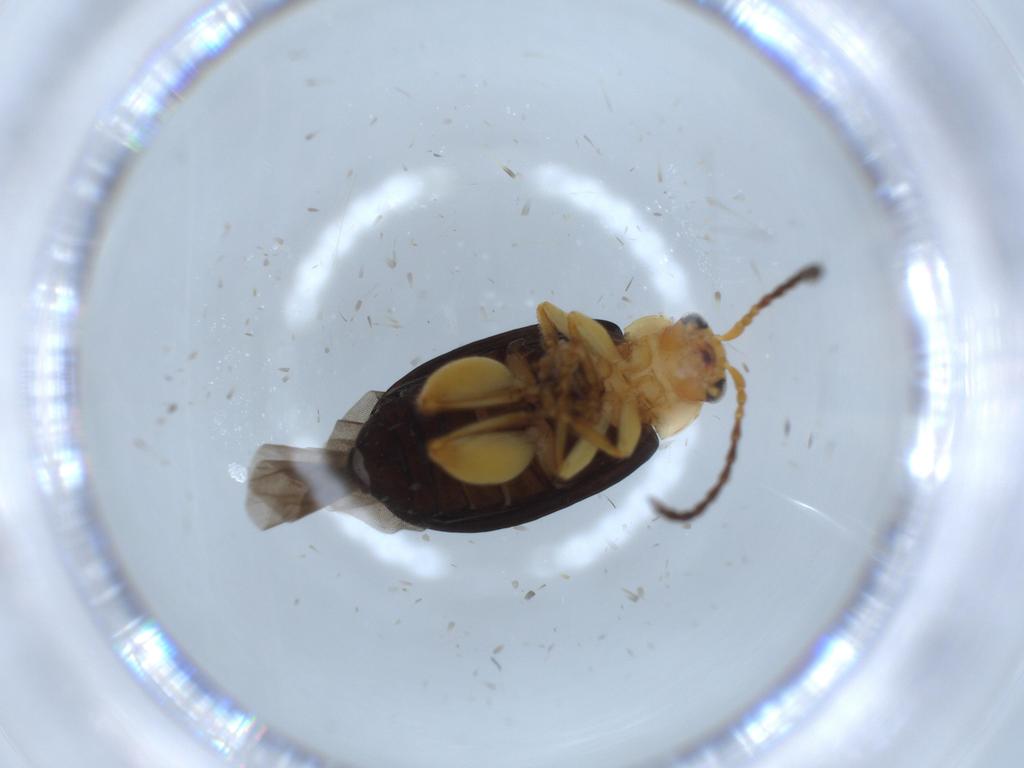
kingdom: Animalia
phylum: Arthropoda
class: Insecta
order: Coleoptera
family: Chrysomelidae
